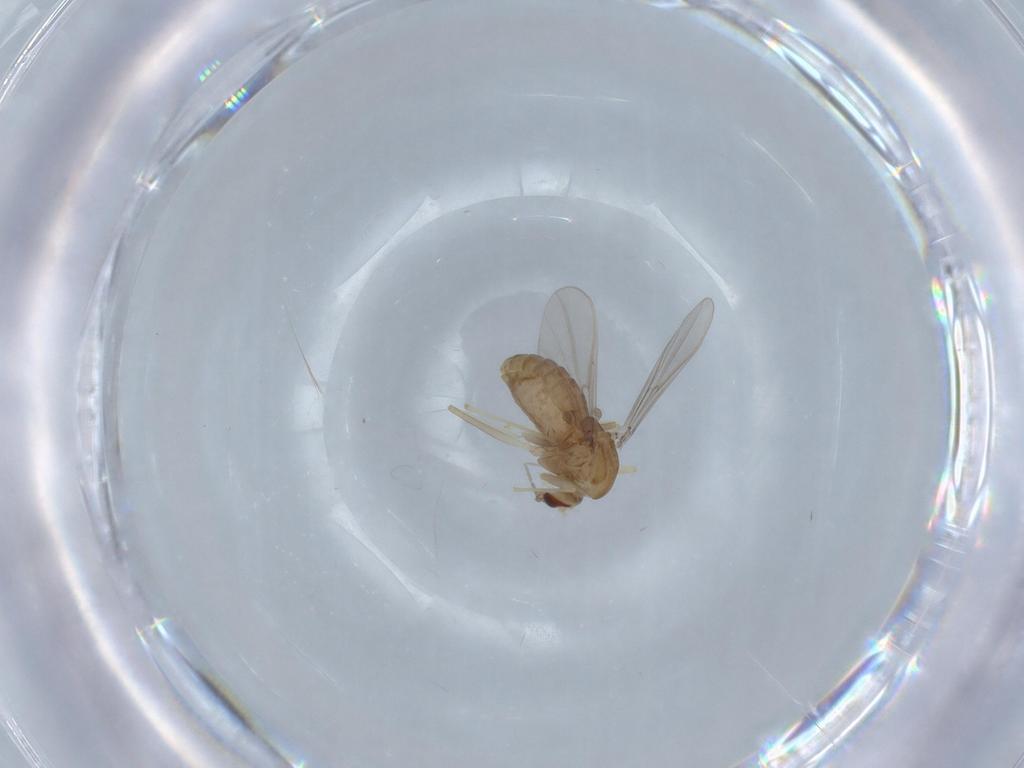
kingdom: Animalia
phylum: Arthropoda
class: Insecta
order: Diptera
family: Chironomidae
